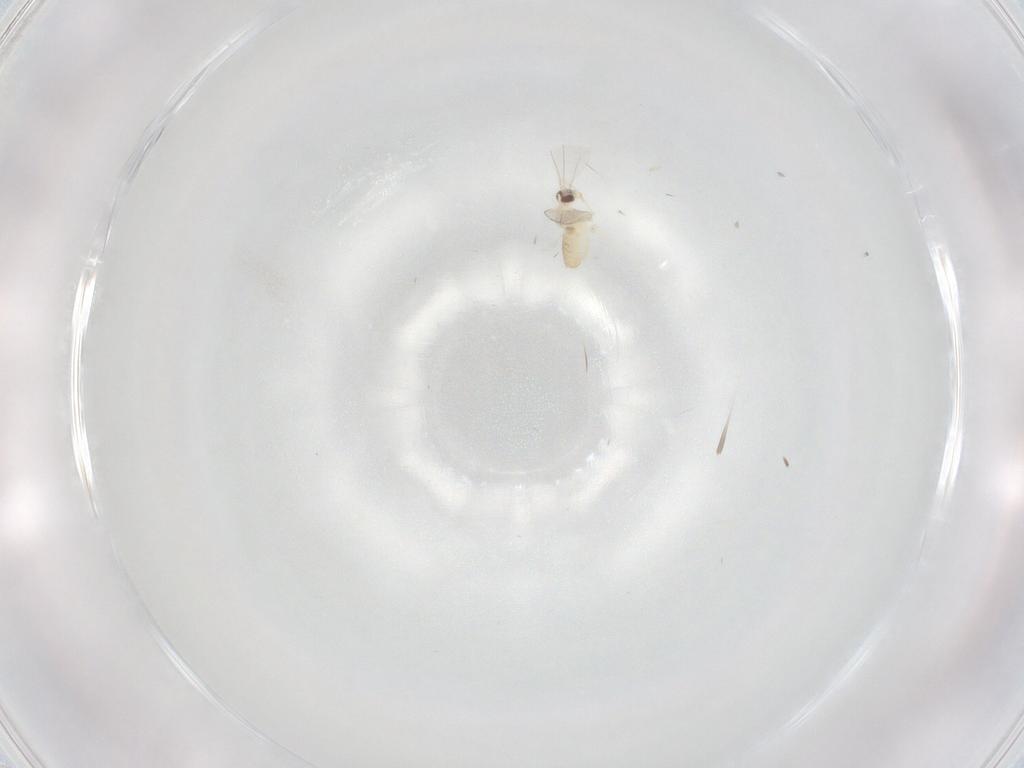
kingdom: Animalia
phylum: Arthropoda
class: Insecta
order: Diptera
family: Cecidomyiidae
